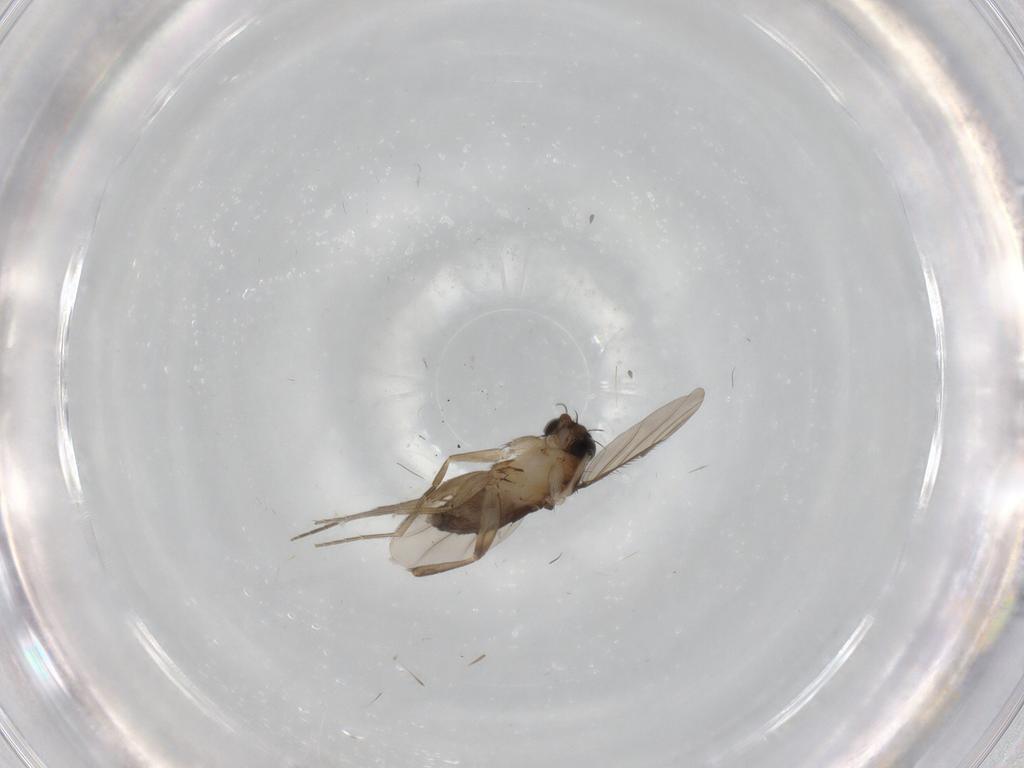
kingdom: Animalia
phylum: Arthropoda
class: Insecta
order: Diptera
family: Phoridae
